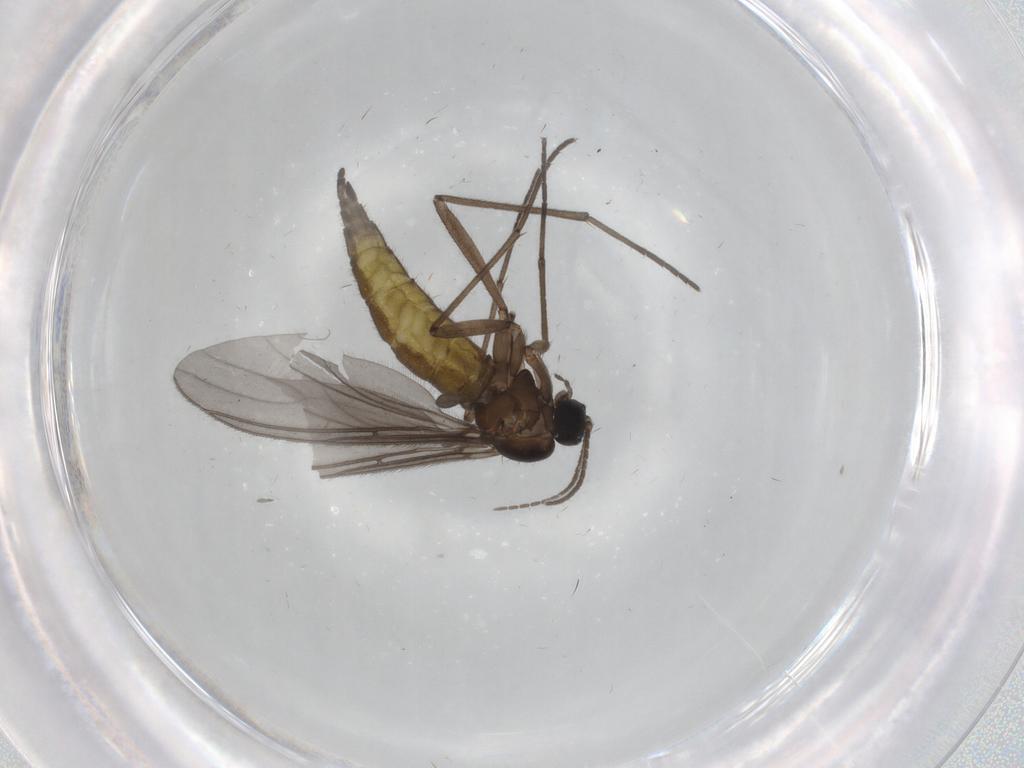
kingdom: Animalia
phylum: Arthropoda
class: Insecta
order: Diptera
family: Sciaridae
